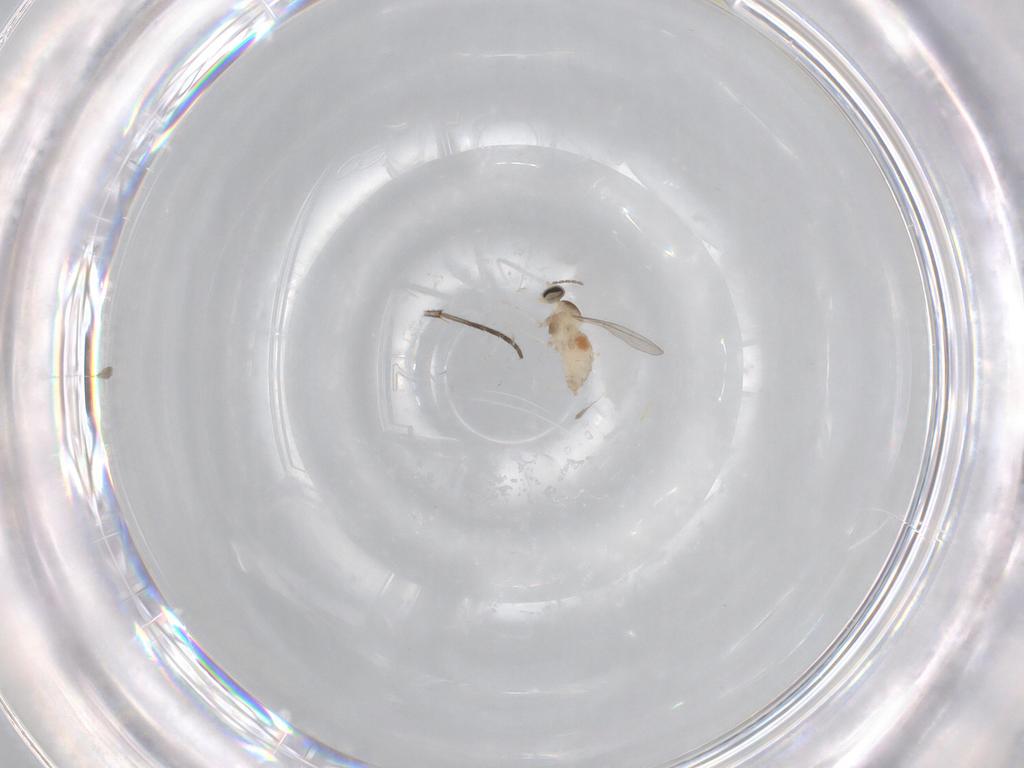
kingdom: Animalia
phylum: Arthropoda
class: Insecta
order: Diptera
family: Sciaridae
